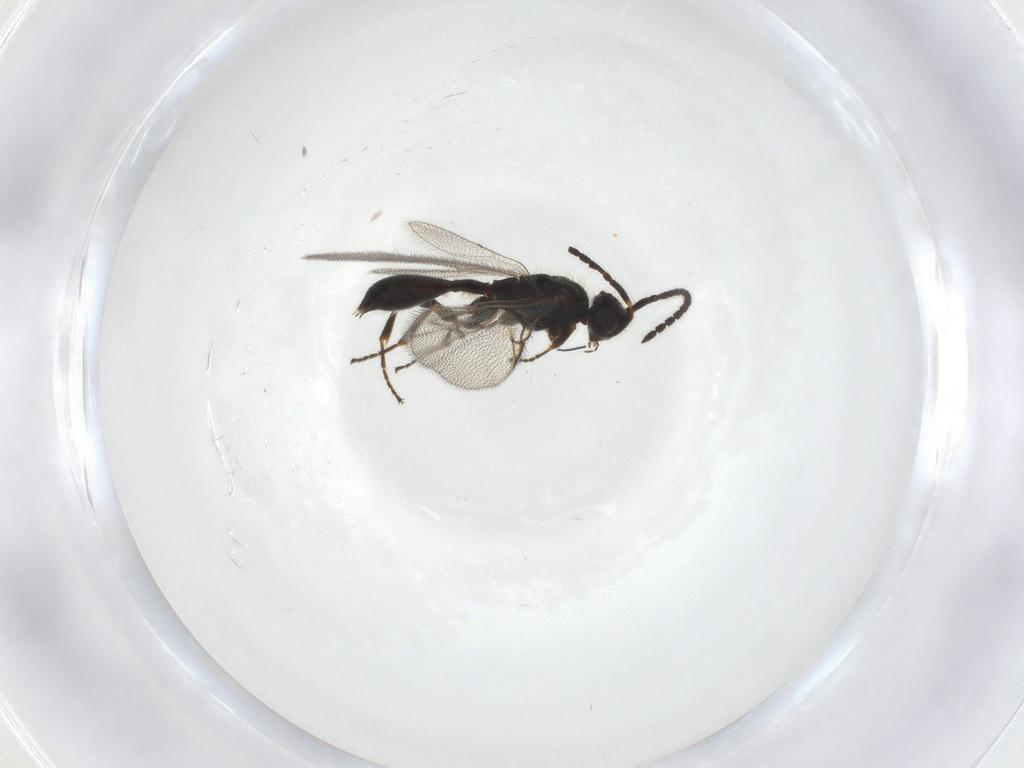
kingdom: Animalia
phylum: Arthropoda
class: Insecta
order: Hymenoptera
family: Diapriidae
